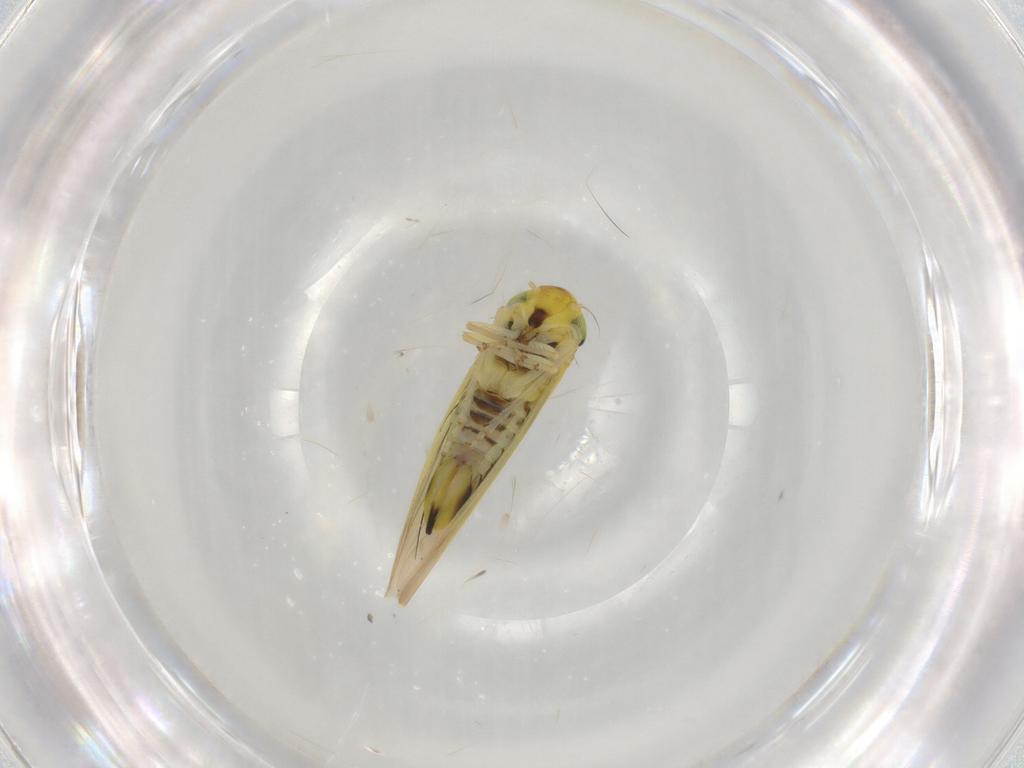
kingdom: Animalia
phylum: Arthropoda
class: Insecta
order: Hemiptera
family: Cicadellidae
